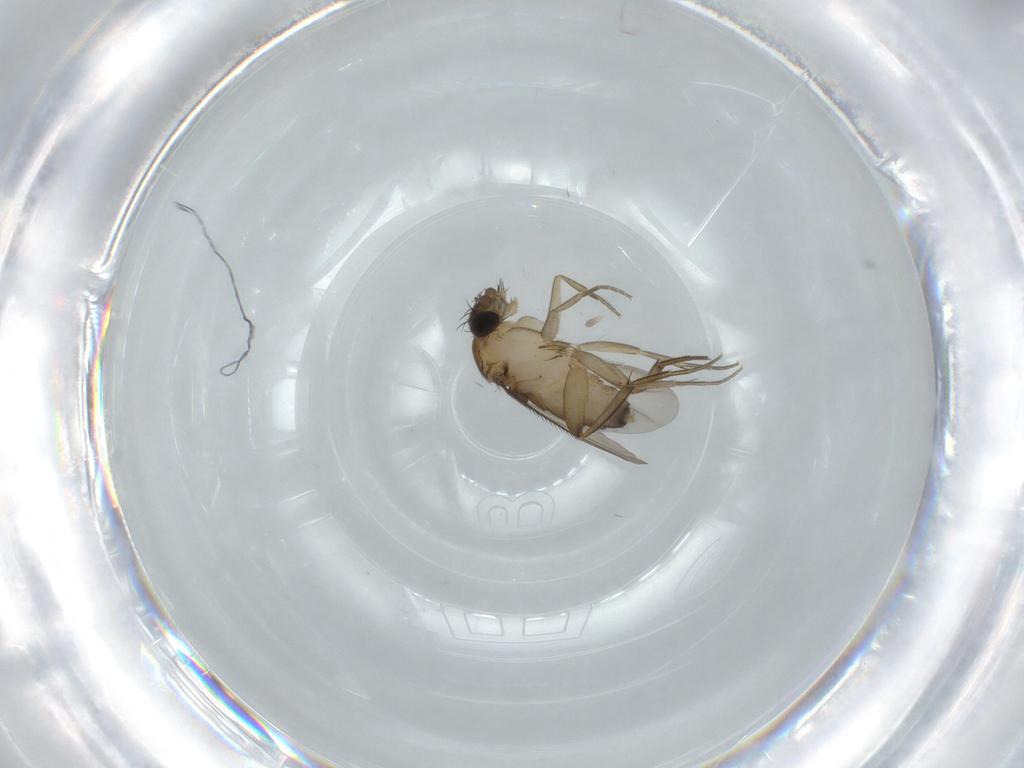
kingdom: Animalia
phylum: Arthropoda
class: Insecta
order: Diptera
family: Phoridae
